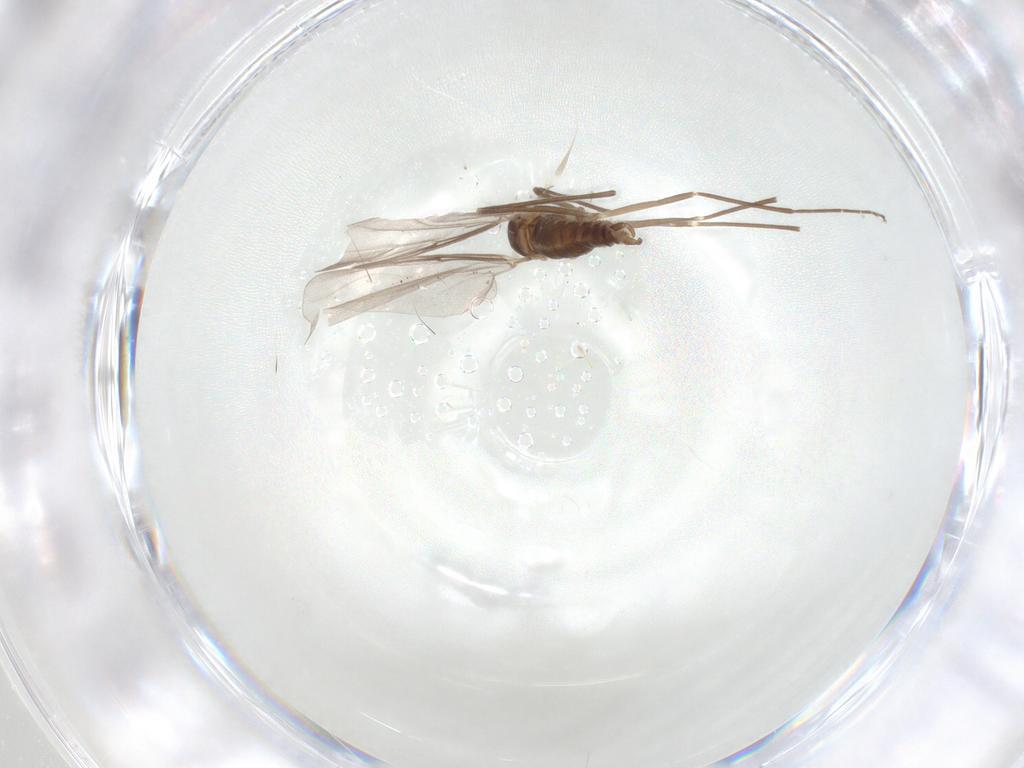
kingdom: Animalia
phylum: Arthropoda
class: Insecta
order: Diptera
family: Cecidomyiidae
